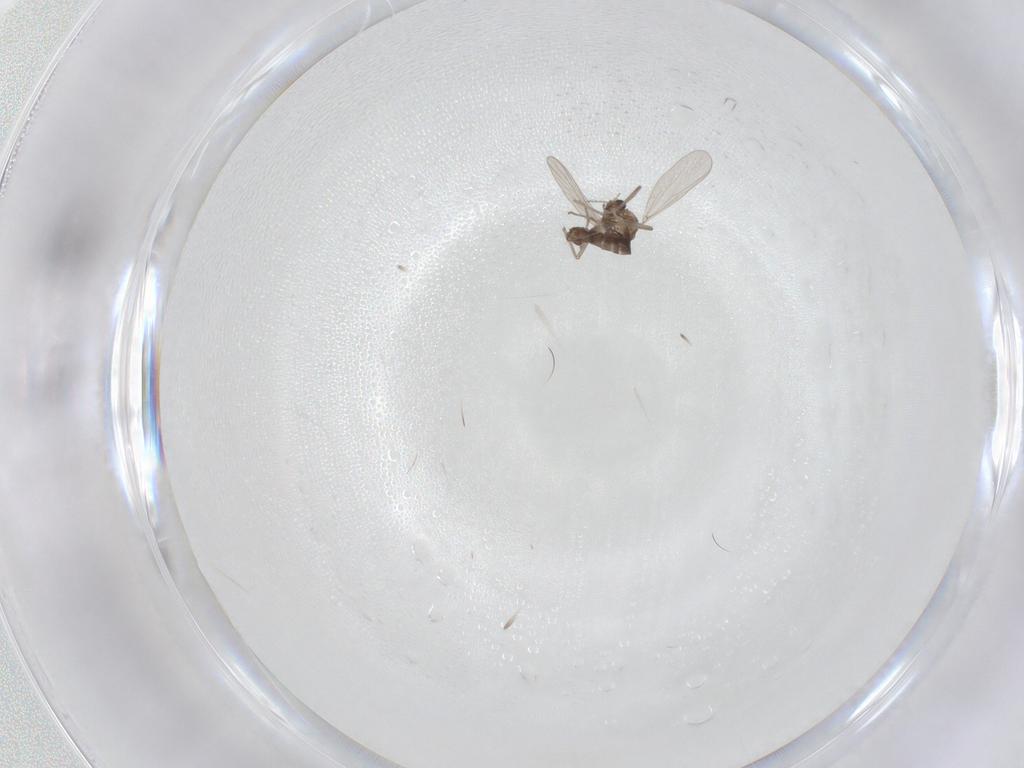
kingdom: Animalia
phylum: Arthropoda
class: Insecta
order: Diptera
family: Chironomidae
